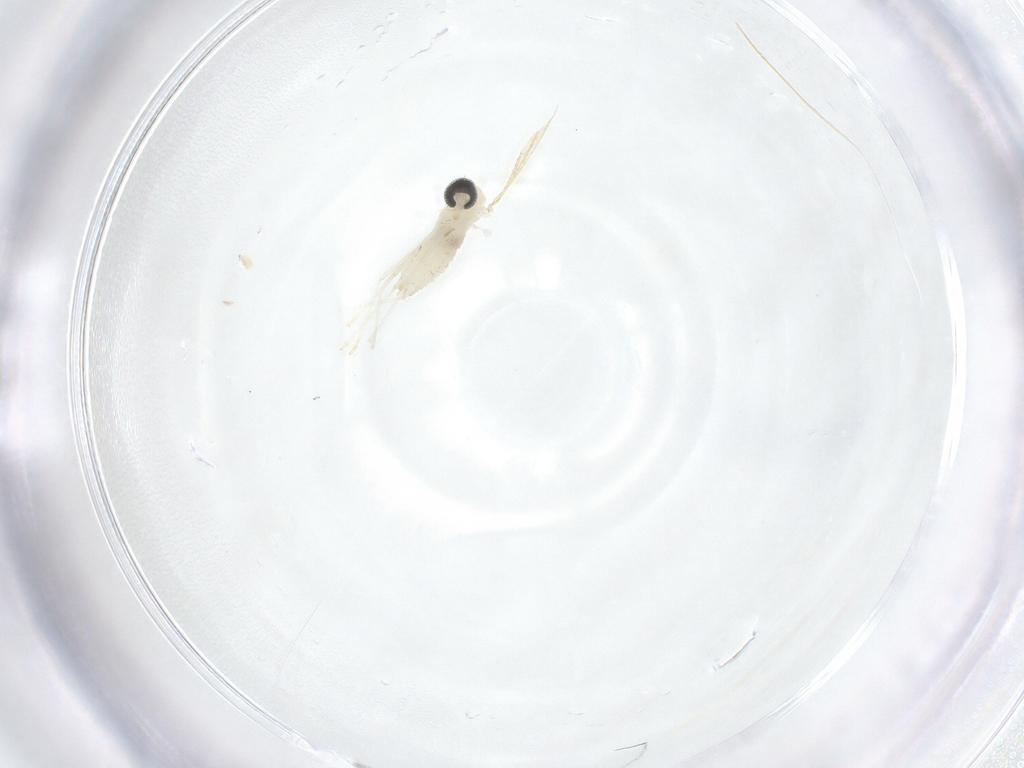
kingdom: Animalia
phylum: Arthropoda
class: Insecta
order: Diptera
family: Cecidomyiidae
